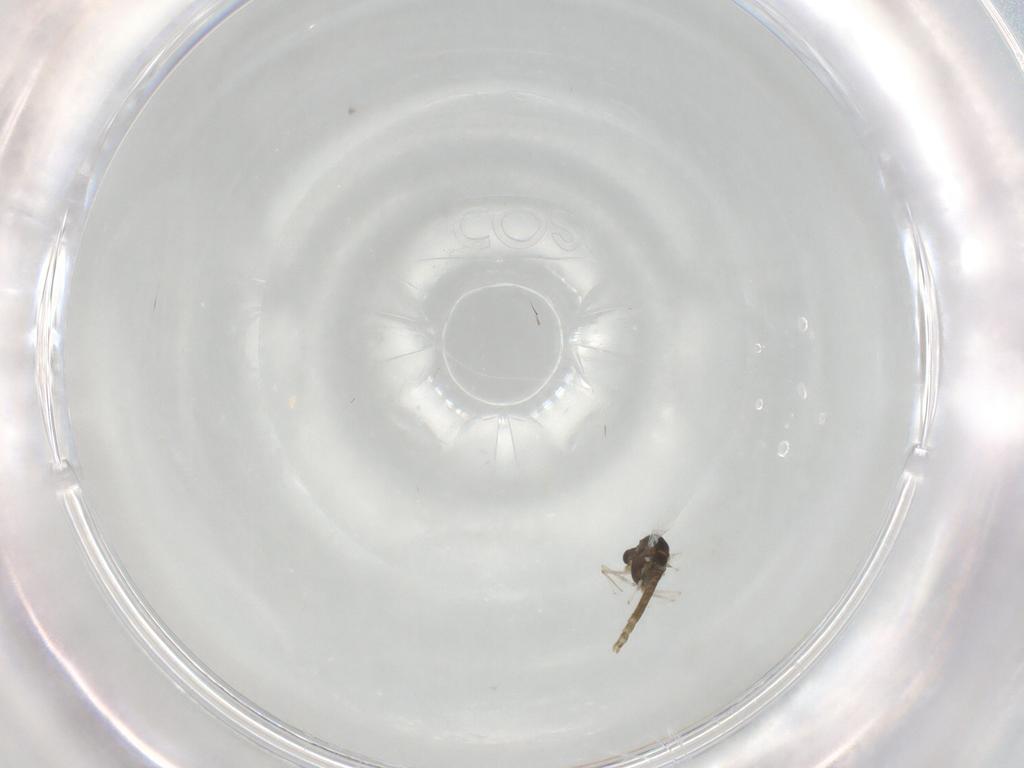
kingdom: Animalia
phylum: Arthropoda
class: Insecta
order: Diptera
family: Chironomidae
